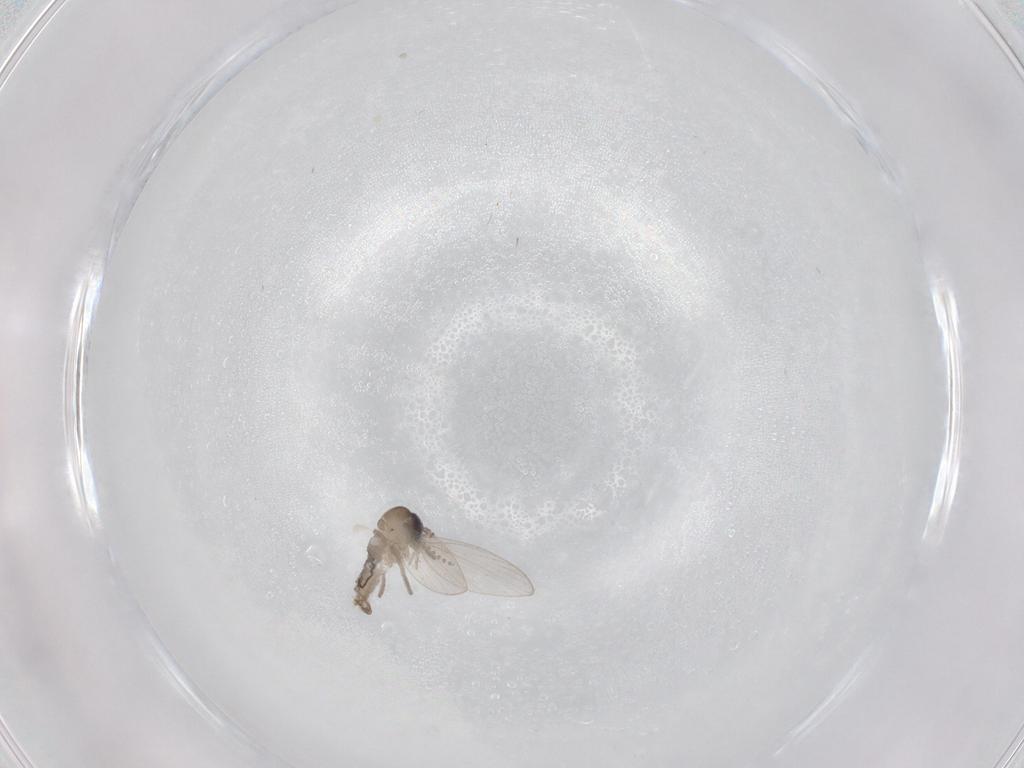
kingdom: Animalia
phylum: Arthropoda
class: Insecta
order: Diptera
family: Psychodidae
